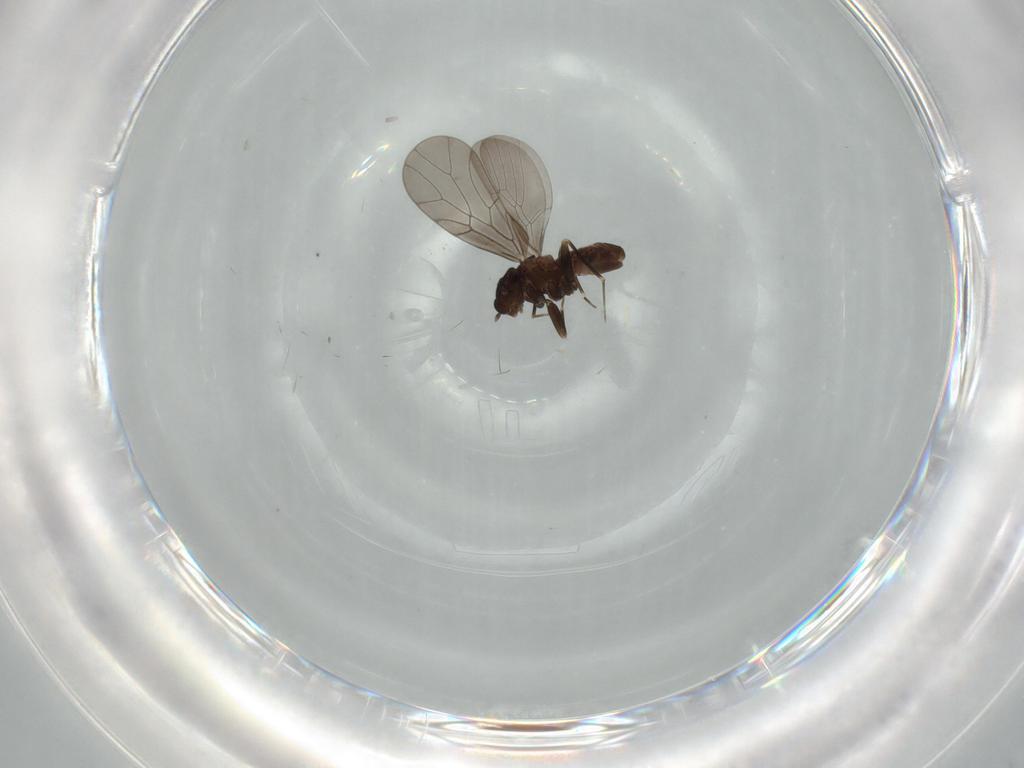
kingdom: Animalia
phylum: Arthropoda
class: Insecta
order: Psocodea
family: Lepidopsocidae
